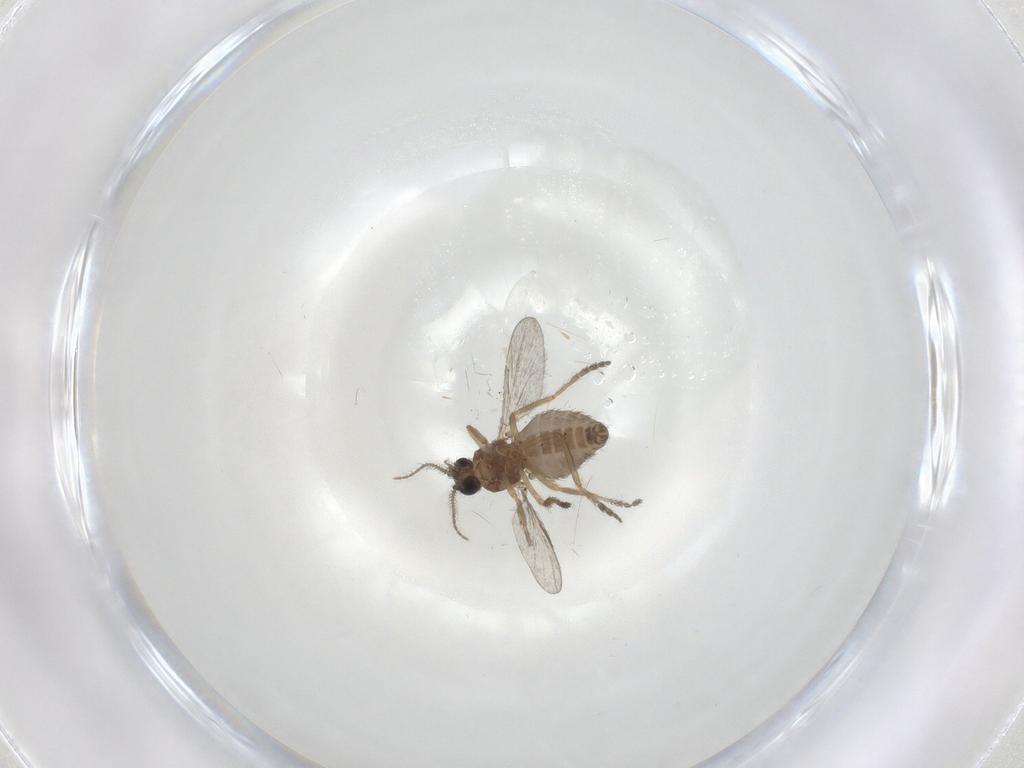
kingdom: Animalia
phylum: Arthropoda
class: Insecta
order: Diptera
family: Ceratopogonidae
